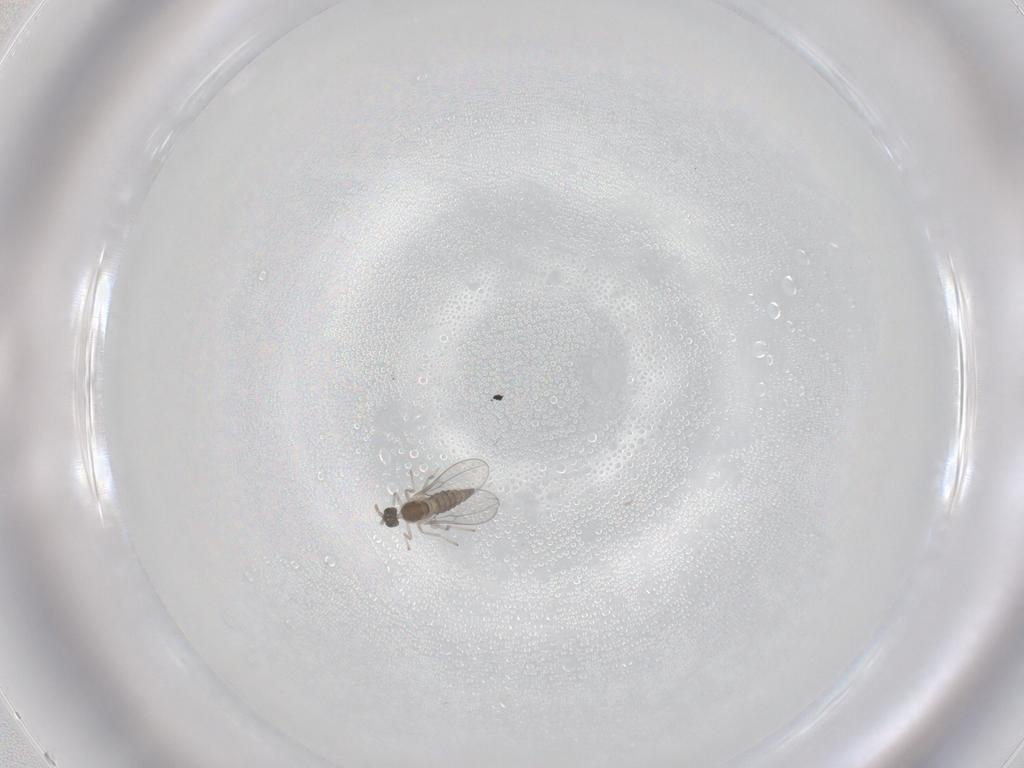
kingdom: Animalia
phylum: Arthropoda
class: Insecta
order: Diptera
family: Cecidomyiidae
